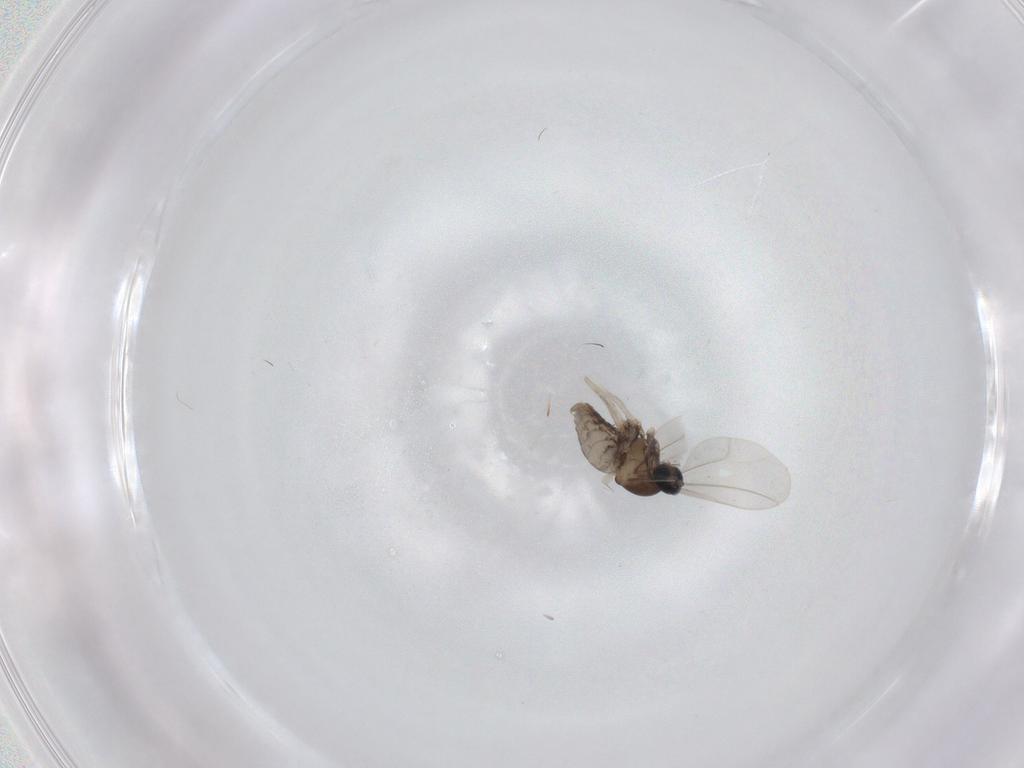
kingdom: Animalia
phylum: Arthropoda
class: Insecta
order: Diptera
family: Cecidomyiidae
